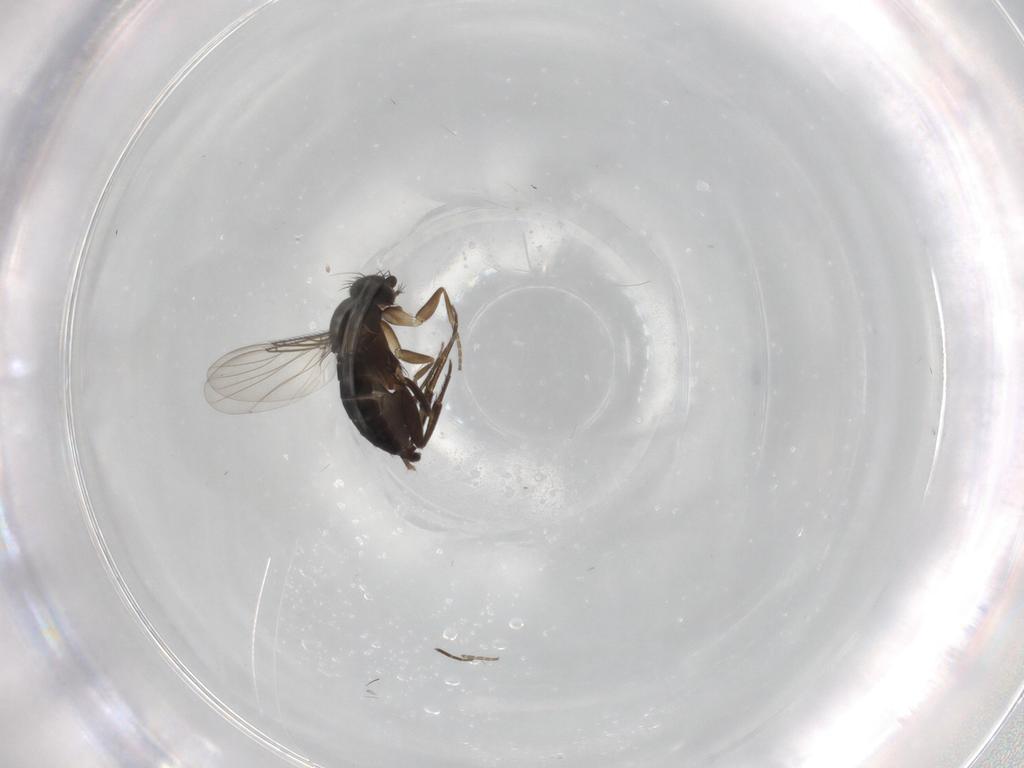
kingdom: Animalia
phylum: Arthropoda
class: Insecta
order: Diptera
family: Phoridae
